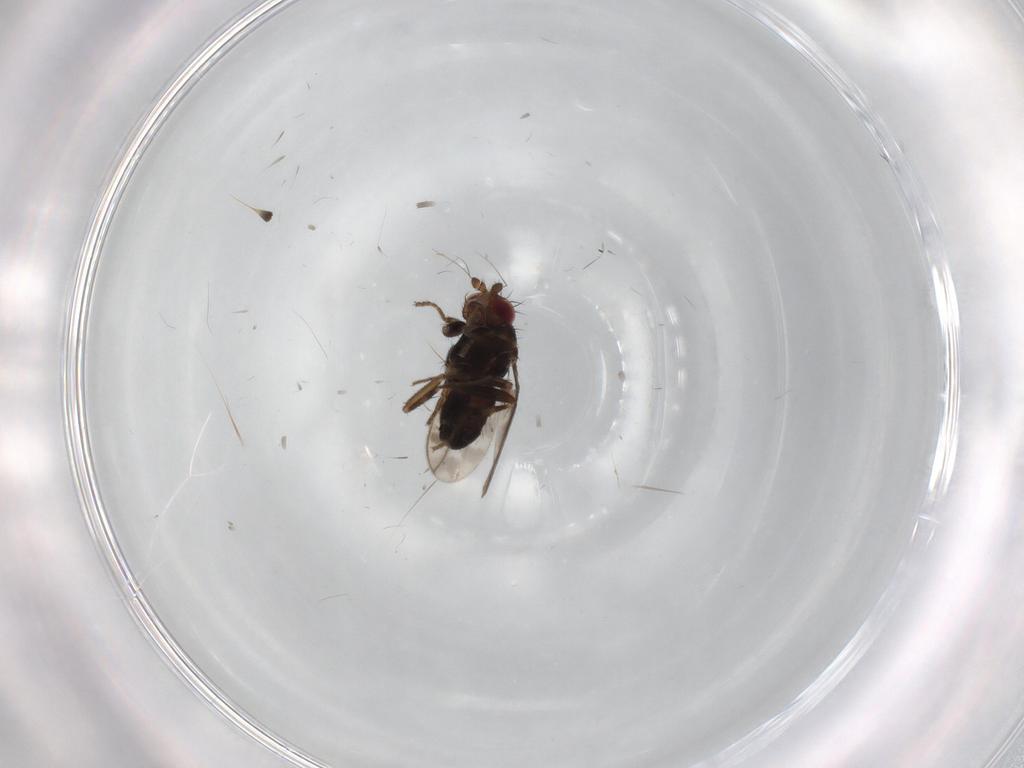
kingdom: Animalia
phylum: Arthropoda
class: Insecta
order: Diptera
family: Sphaeroceridae
